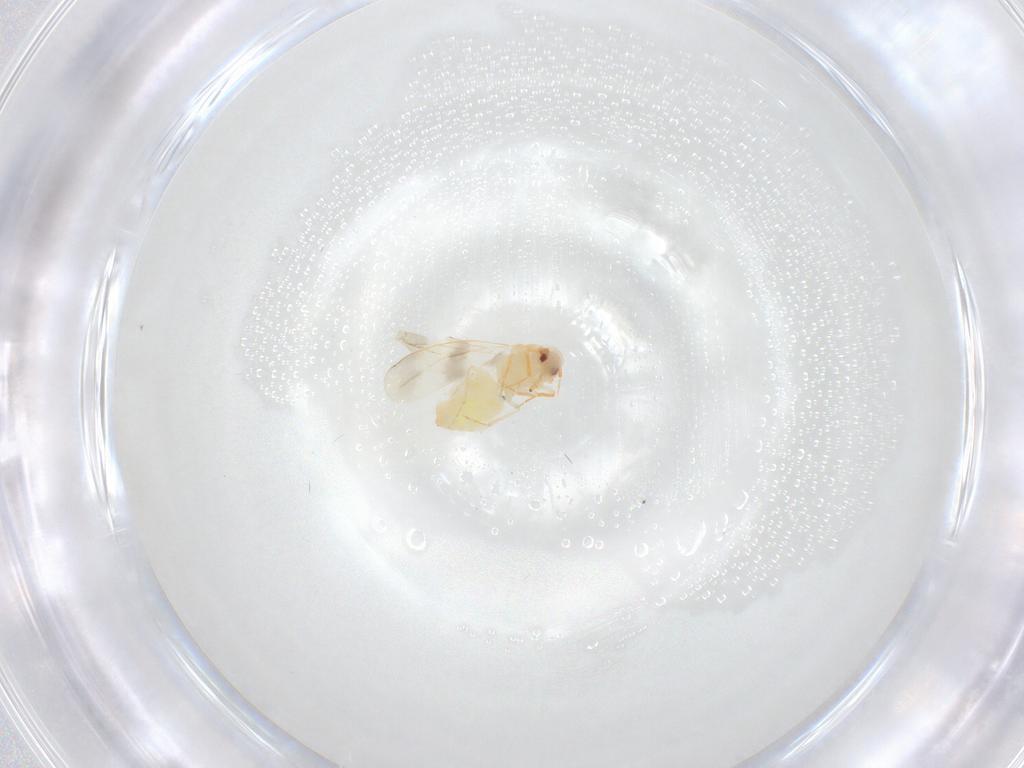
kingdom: Animalia
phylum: Arthropoda
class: Insecta
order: Hemiptera
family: Aleyrodidae
